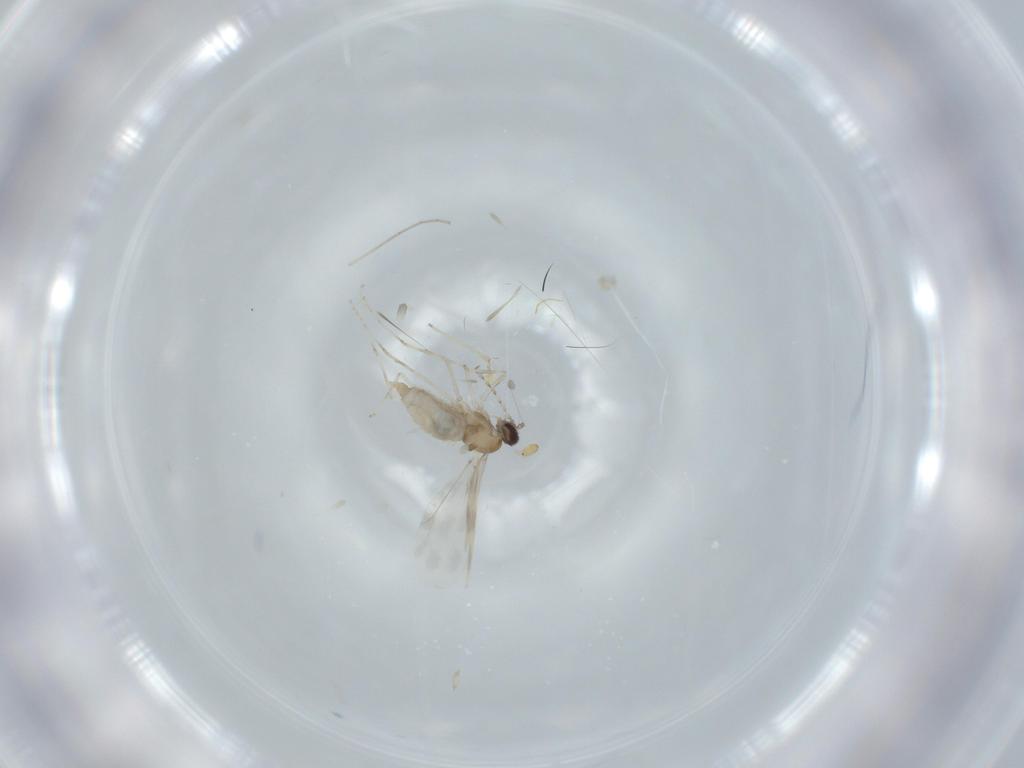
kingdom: Animalia
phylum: Arthropoda
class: Insecta
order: Diptera
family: Cecidomyiidae
